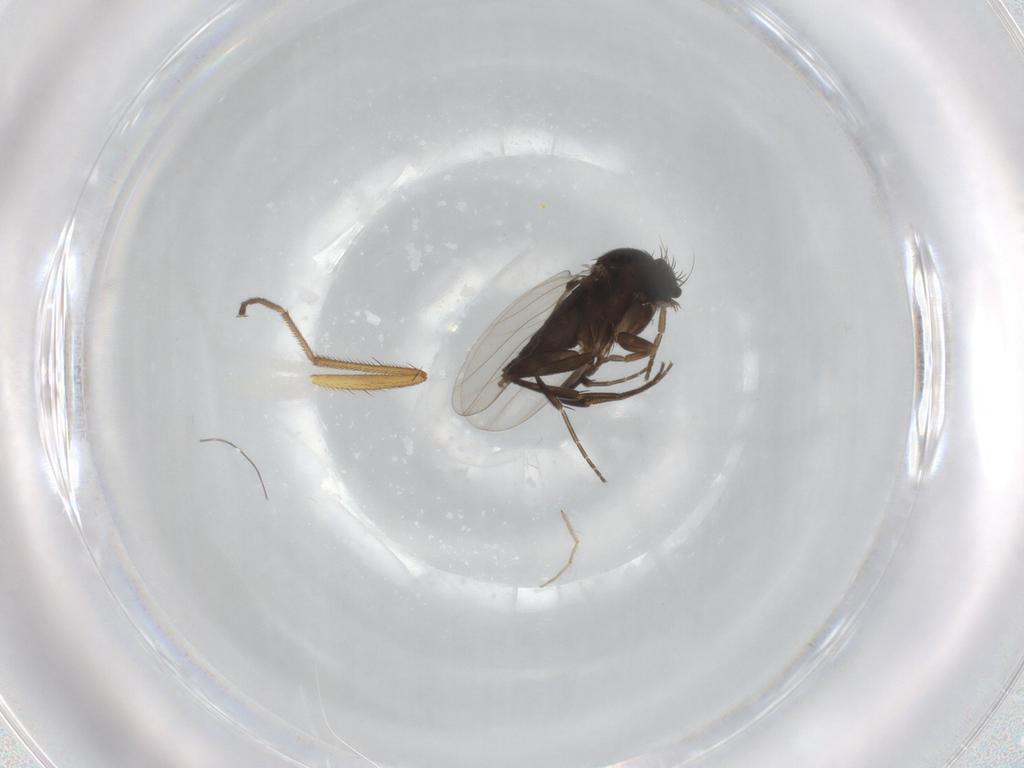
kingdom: Animalia
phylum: Arthropoda
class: Insecta
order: Diptera
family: Phoridae
